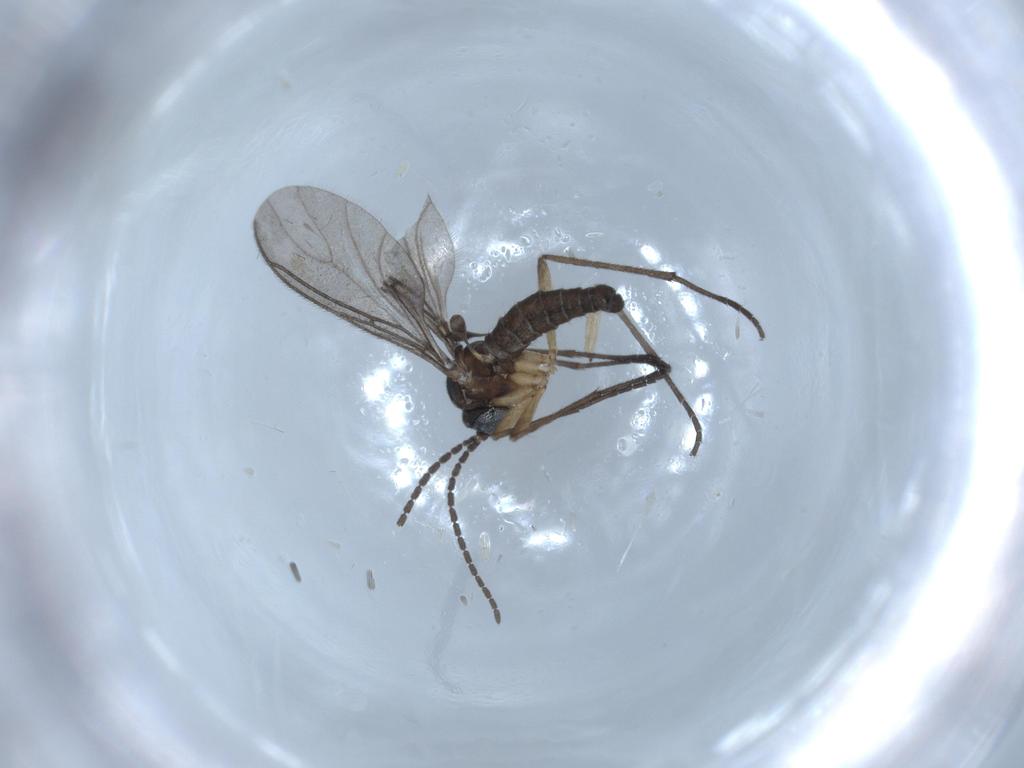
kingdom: Animalia
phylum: Arthropoda
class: Insecta
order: Diptera
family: Sciaridae
